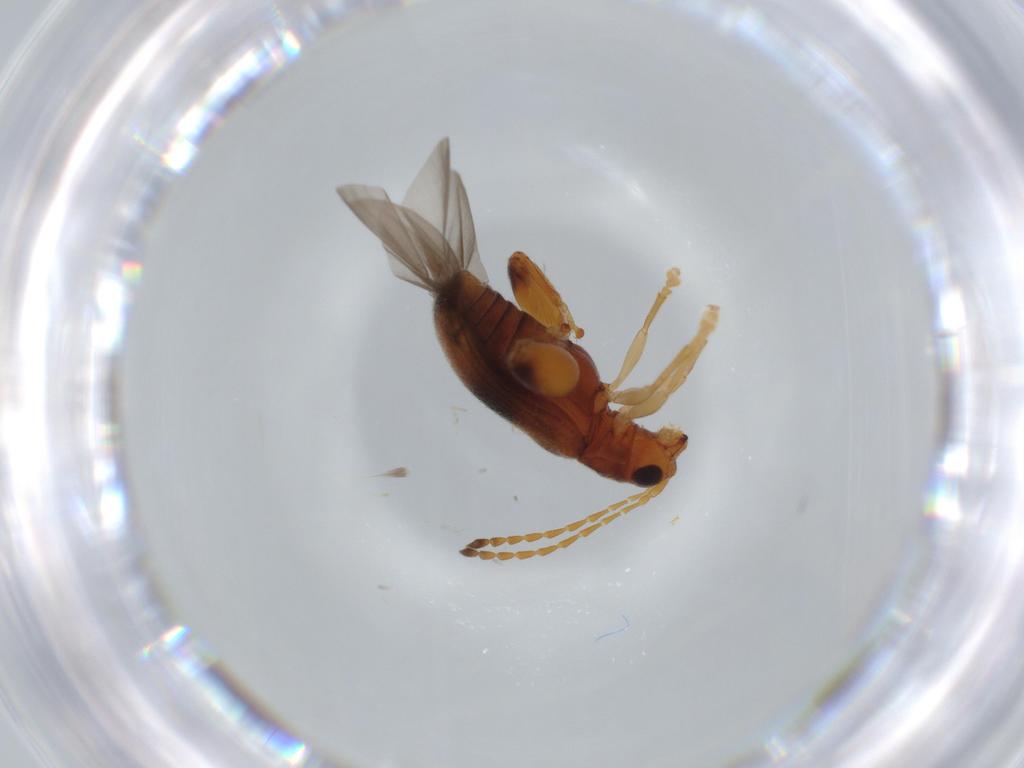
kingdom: Animalia
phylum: Arthropoda
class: Insecta
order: Coleoptera
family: Chrysomelidae
